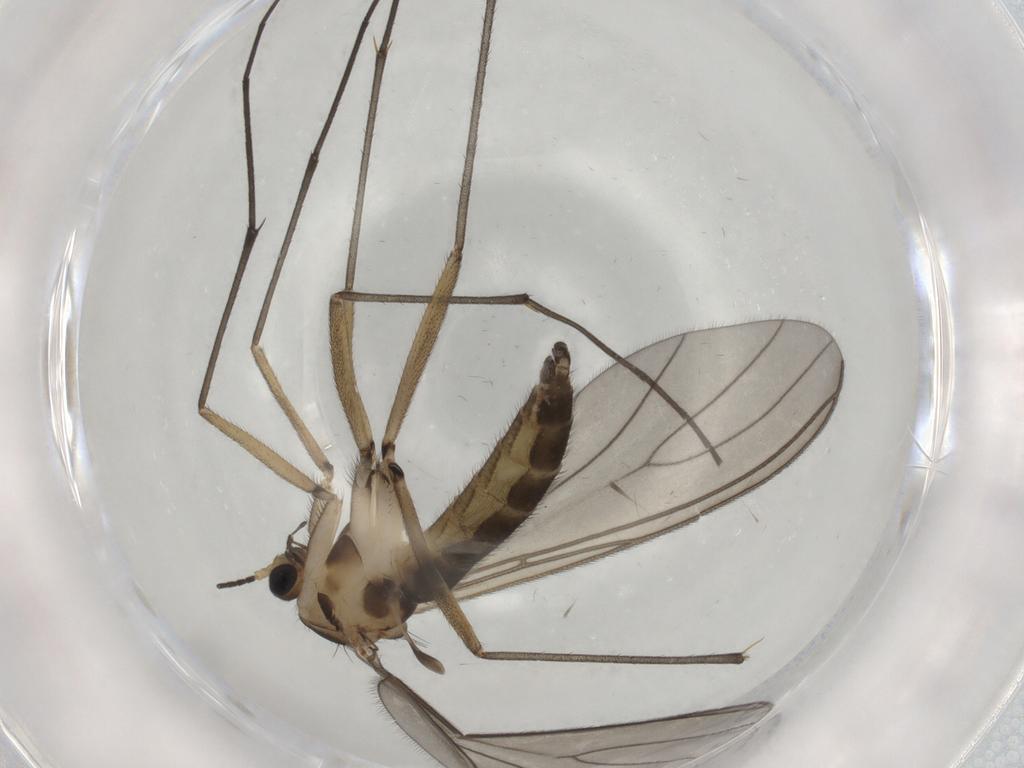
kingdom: Animalia
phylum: Arthropoda
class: Insecta
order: Diptera
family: Sciaridae
